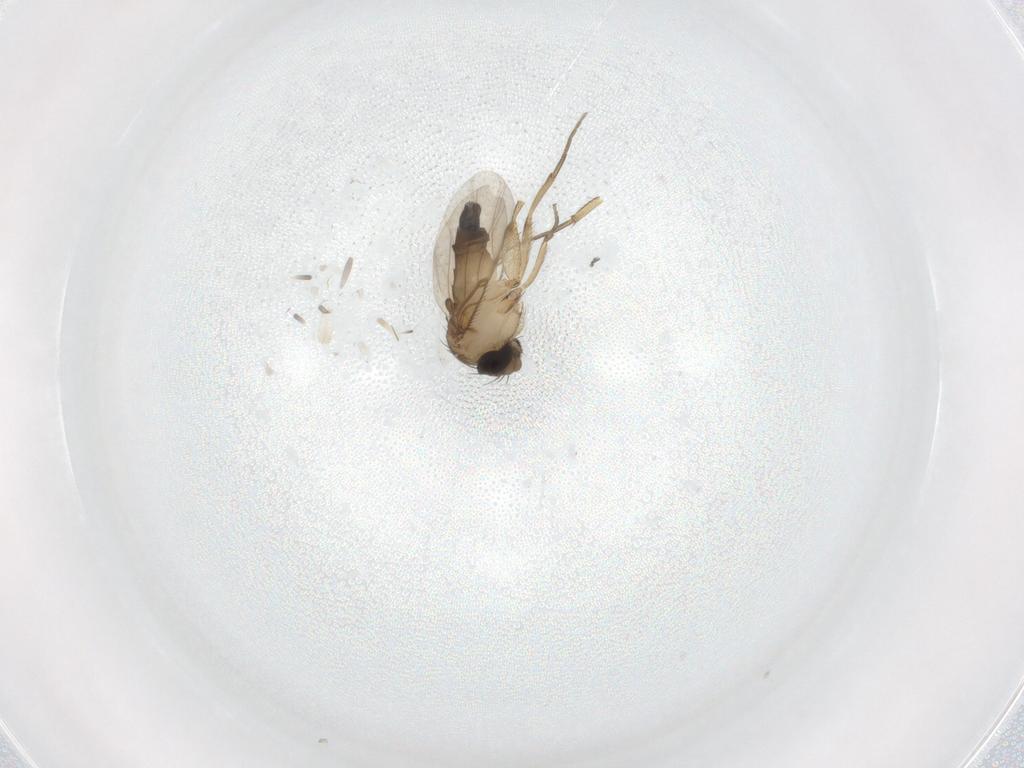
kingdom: Animalia
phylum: Arthropoda
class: Insecta
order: Diptera
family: Phoridae
